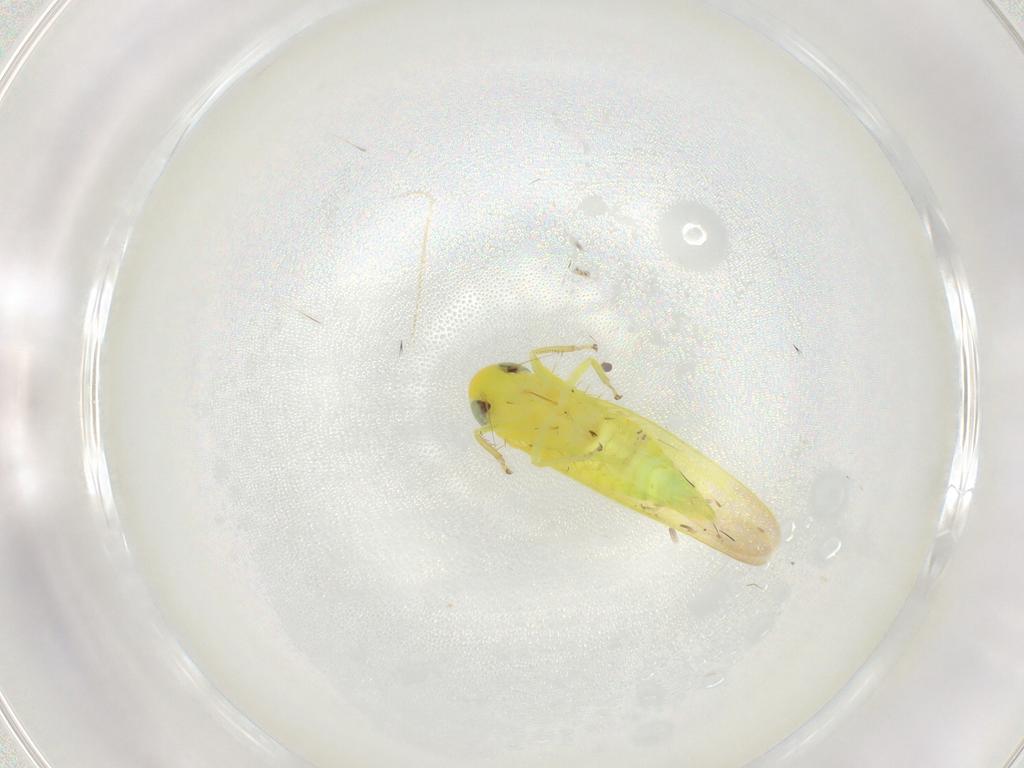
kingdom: Animalia
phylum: Arthropoda
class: Insecta
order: Hemiptera
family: Cicadellidae
